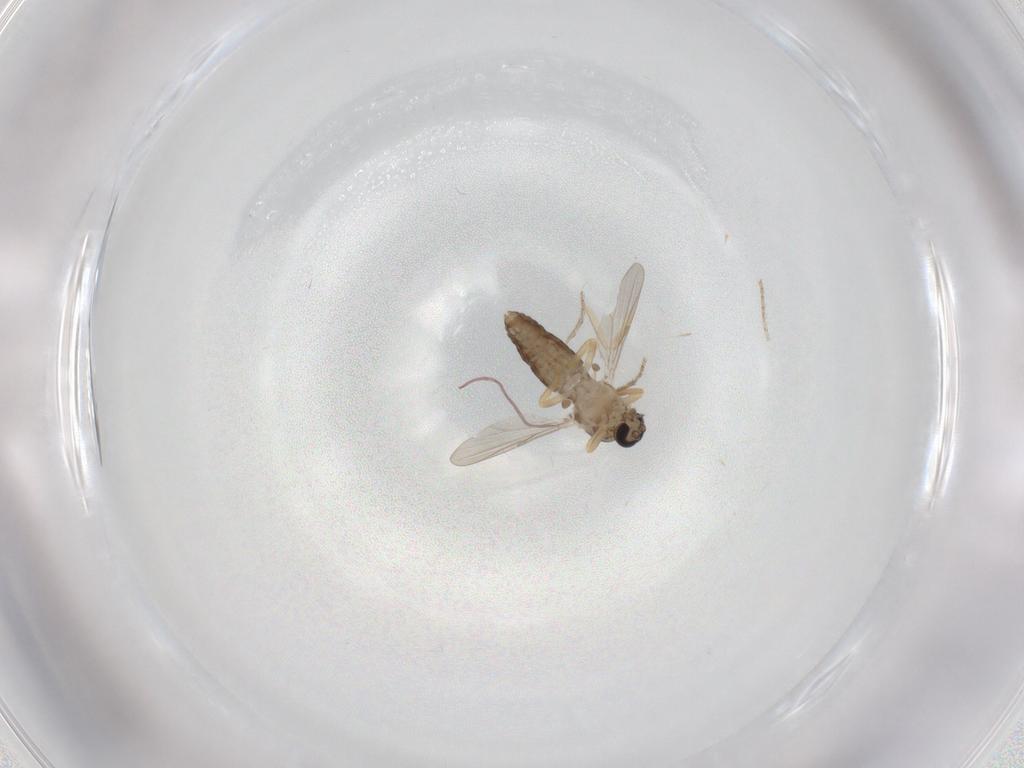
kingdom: Animalia
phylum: Arthropoda
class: Insecta
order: Diptera
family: Ceratopogonidae
